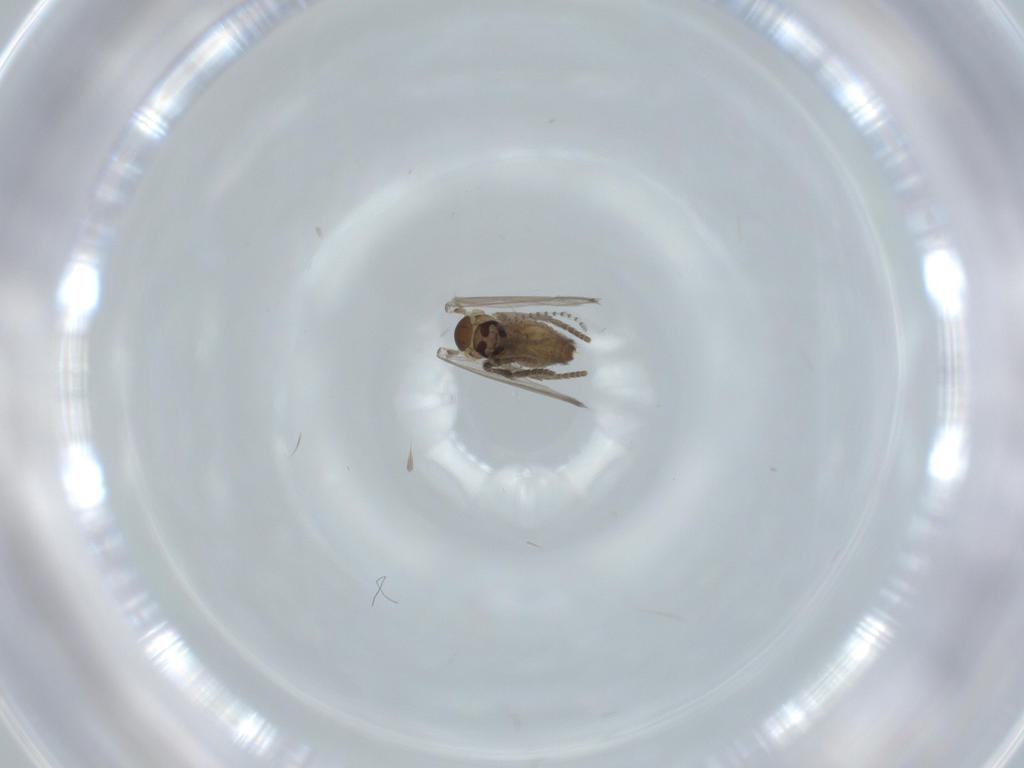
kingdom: Animalia
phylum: Arthropoda
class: Insecta
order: Diptera
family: Psychodidae
